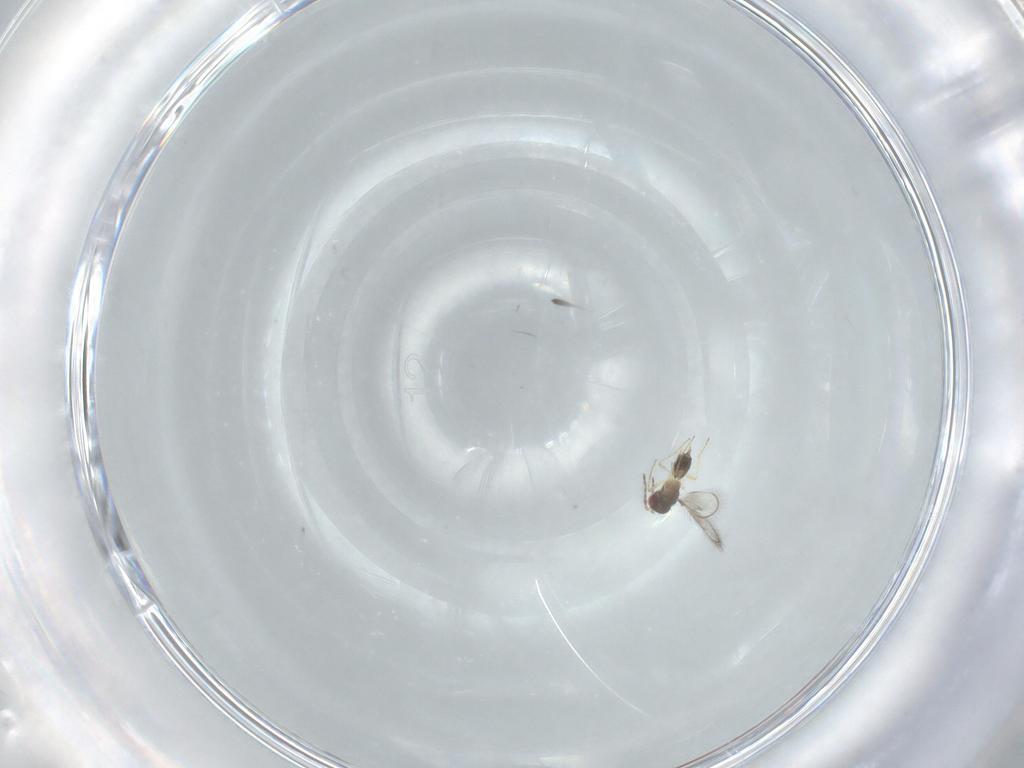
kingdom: Animalia
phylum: Arthropoda
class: Insecta
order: Hymenoptera
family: Eulophidae
